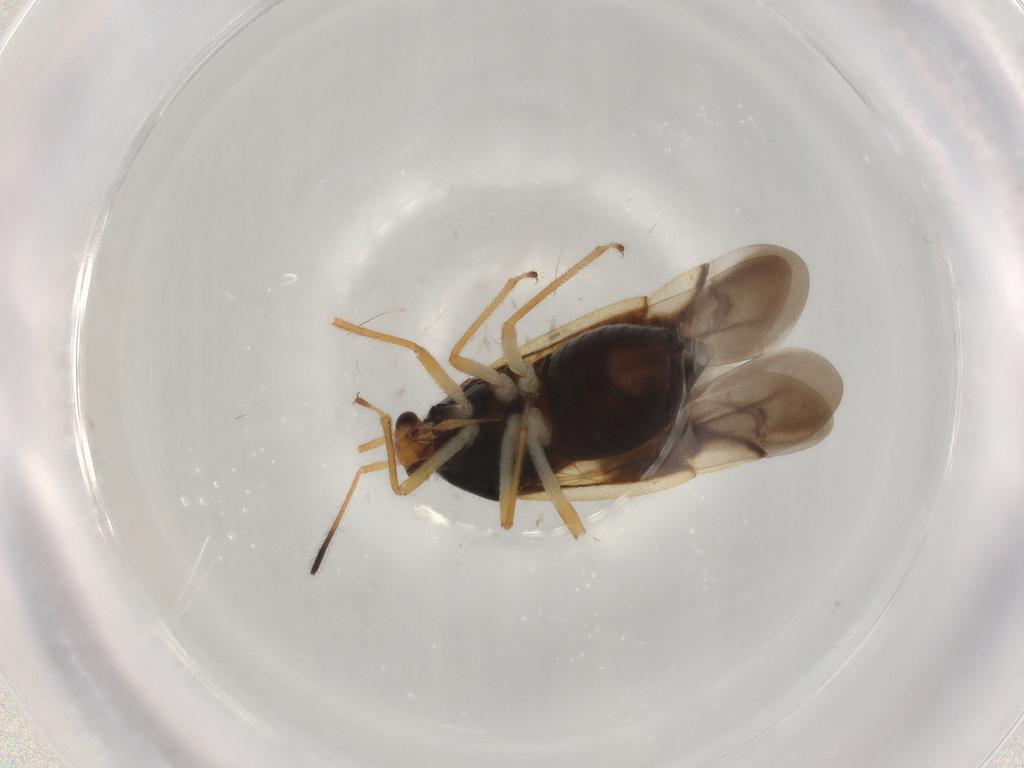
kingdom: Animalia
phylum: Arthropoda
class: Insecta
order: Hemiptera
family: Miridae
